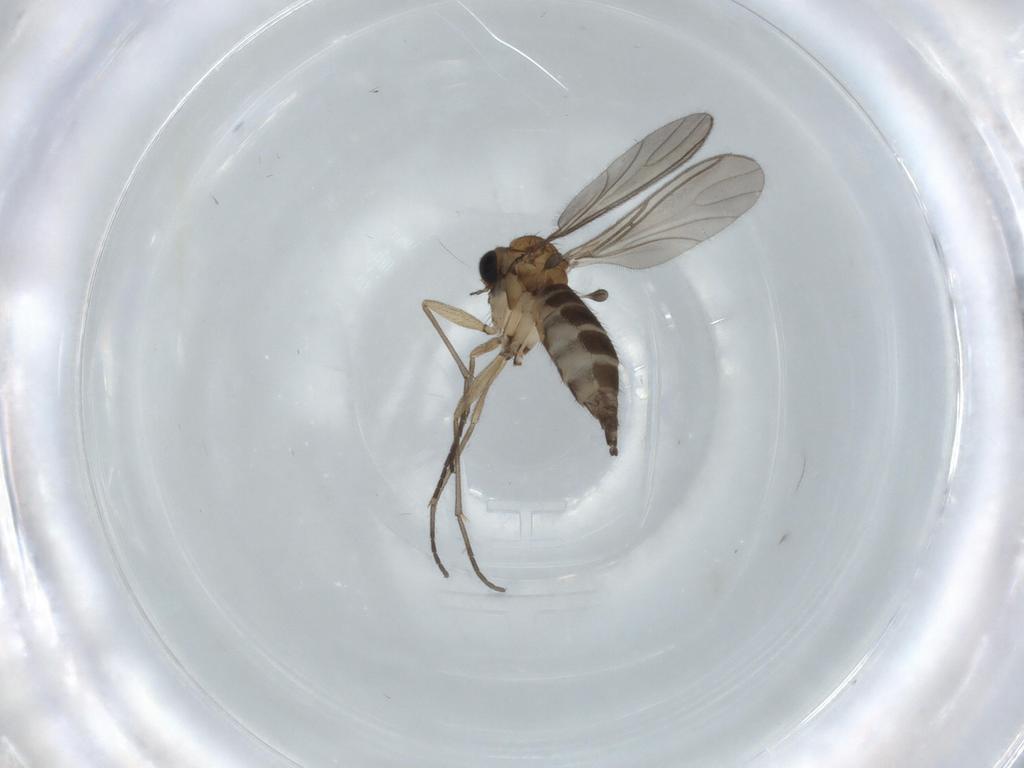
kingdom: Animalia
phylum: Arthropoda
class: Insecta
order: Diptera
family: Sciaridae
